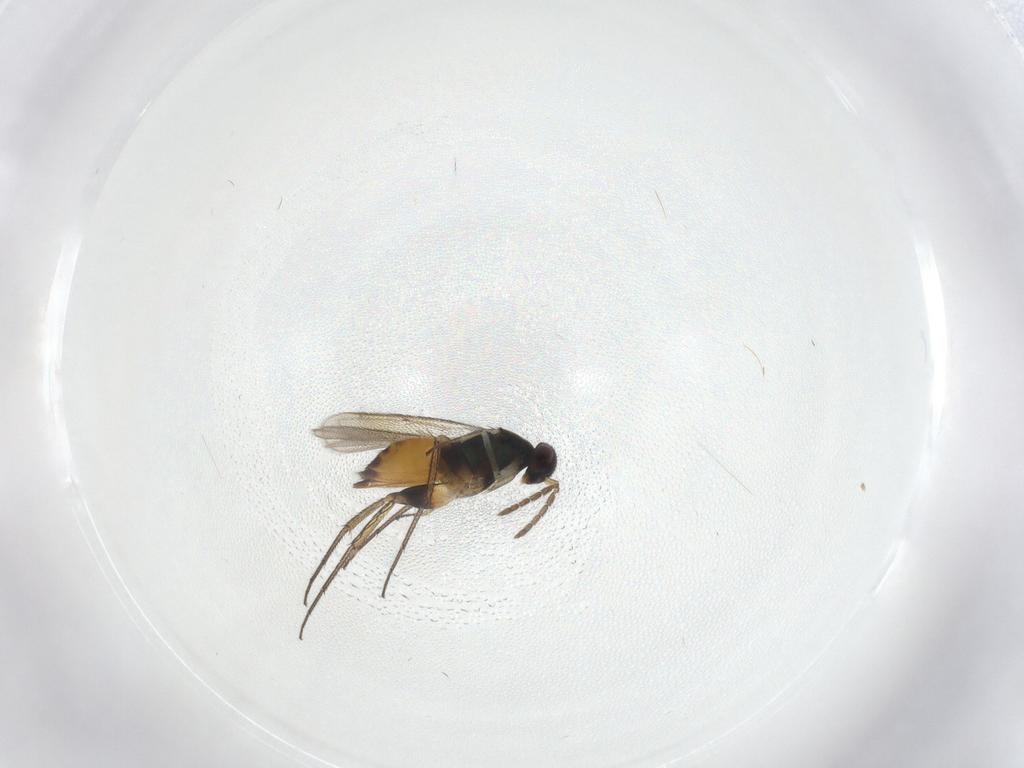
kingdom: Animalia
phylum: Arthropoda
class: Insecta
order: Hymenoptera
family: Eulophidae
